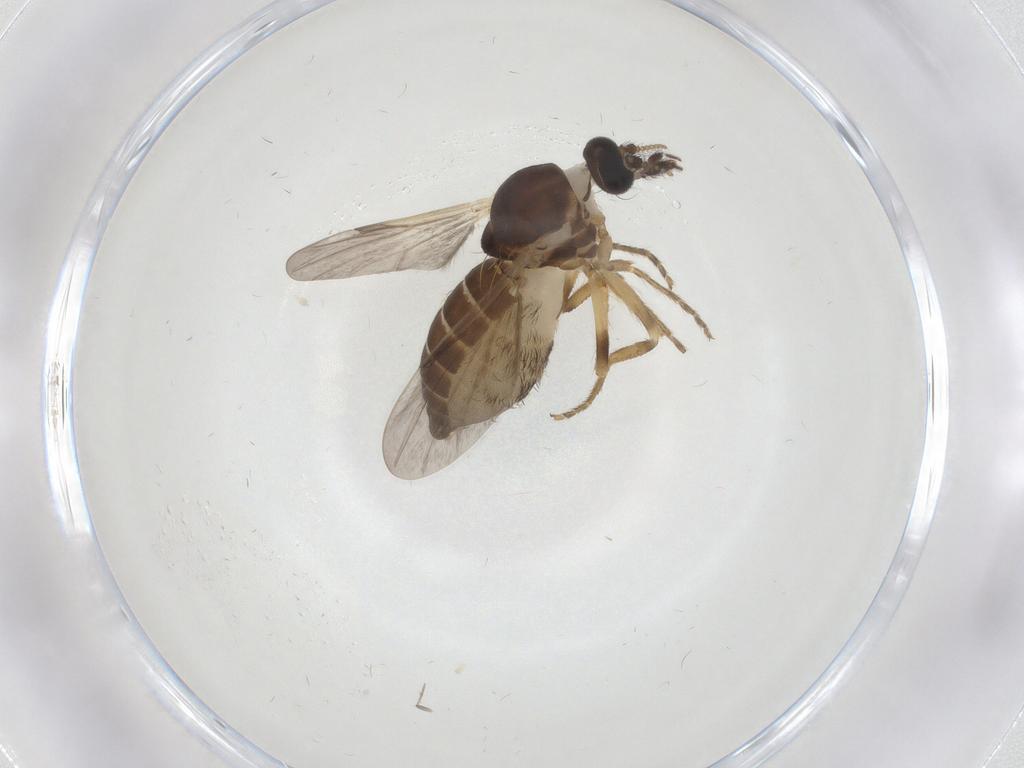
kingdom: Animalia
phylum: Arthropoda
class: Insecta
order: Diptera
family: Ceratopogonidae
